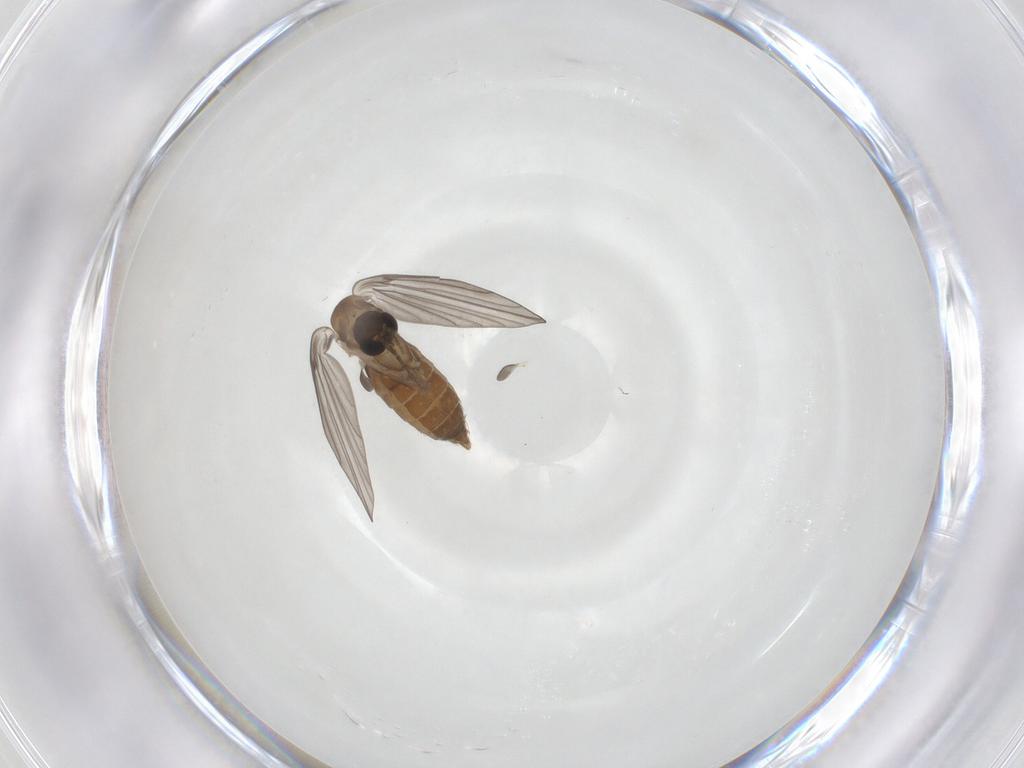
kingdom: Animalia
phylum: Arthropoda
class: Insecta
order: Diptera
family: Psychodidae
